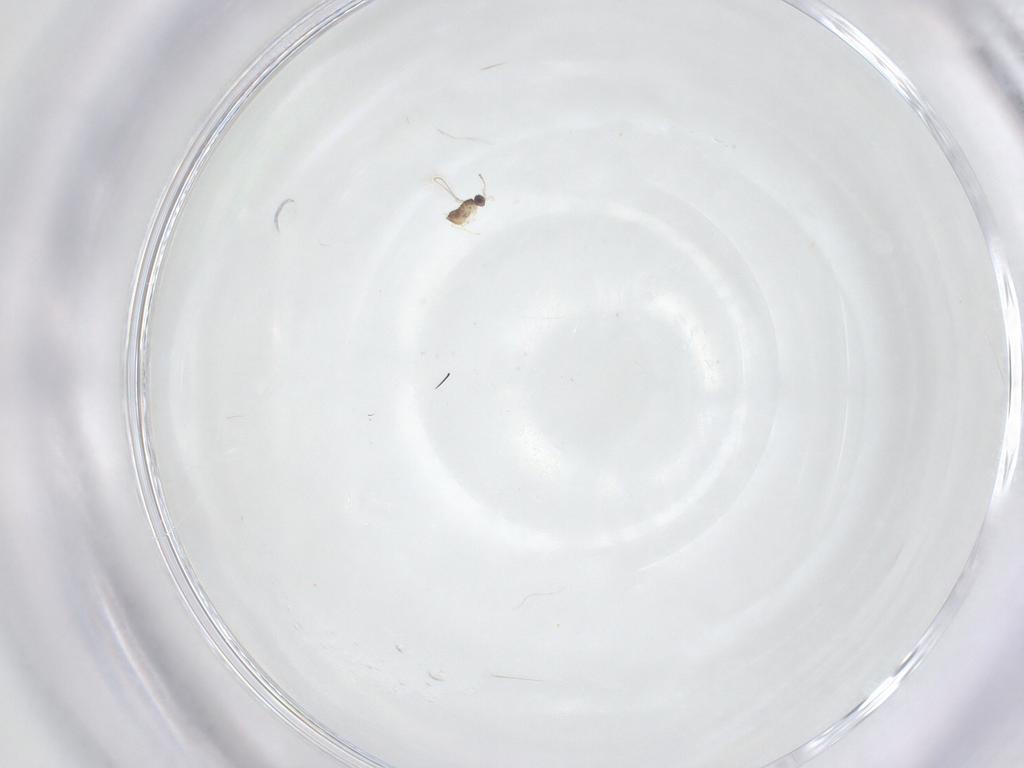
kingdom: Animalia
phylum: Arthropoda
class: Insecta
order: Hymenoptera
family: Mymaridae
